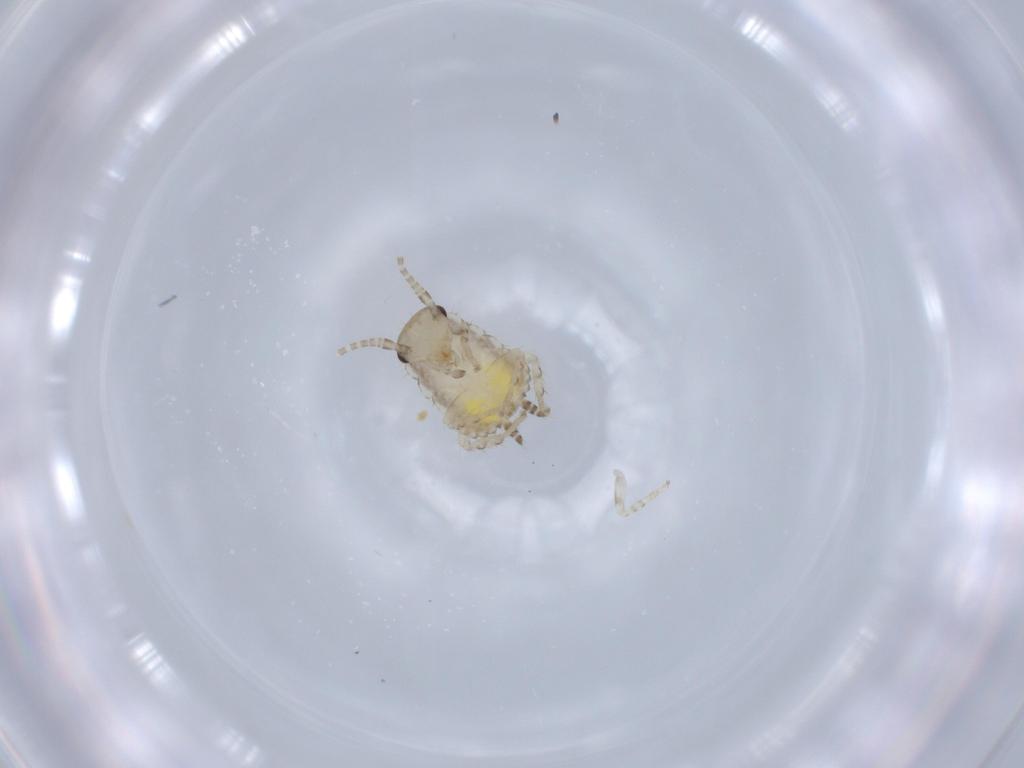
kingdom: Animalia
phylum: Arthropoda
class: Insecta
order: Blattodea
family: Ectobiidae
